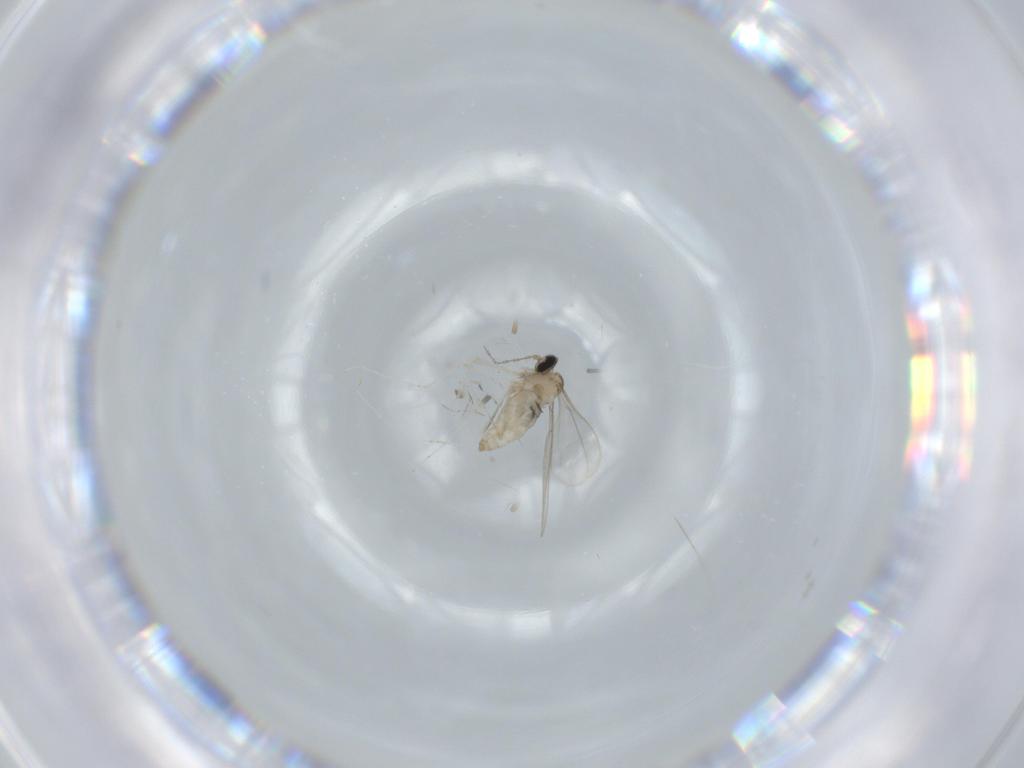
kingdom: Animalia
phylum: Arthropoda
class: Insecta
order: Diptera
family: Cecidomyiidae
